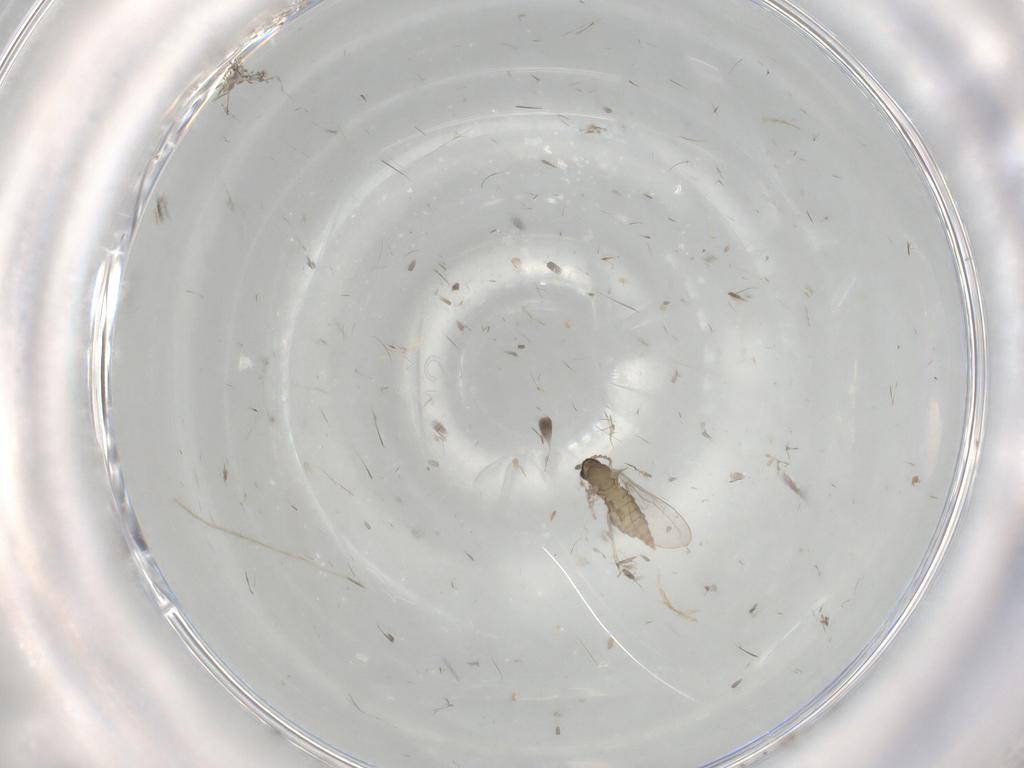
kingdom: Animalia
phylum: Arthropoda
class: Insecta
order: Diptera
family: Cecidomyiidae
